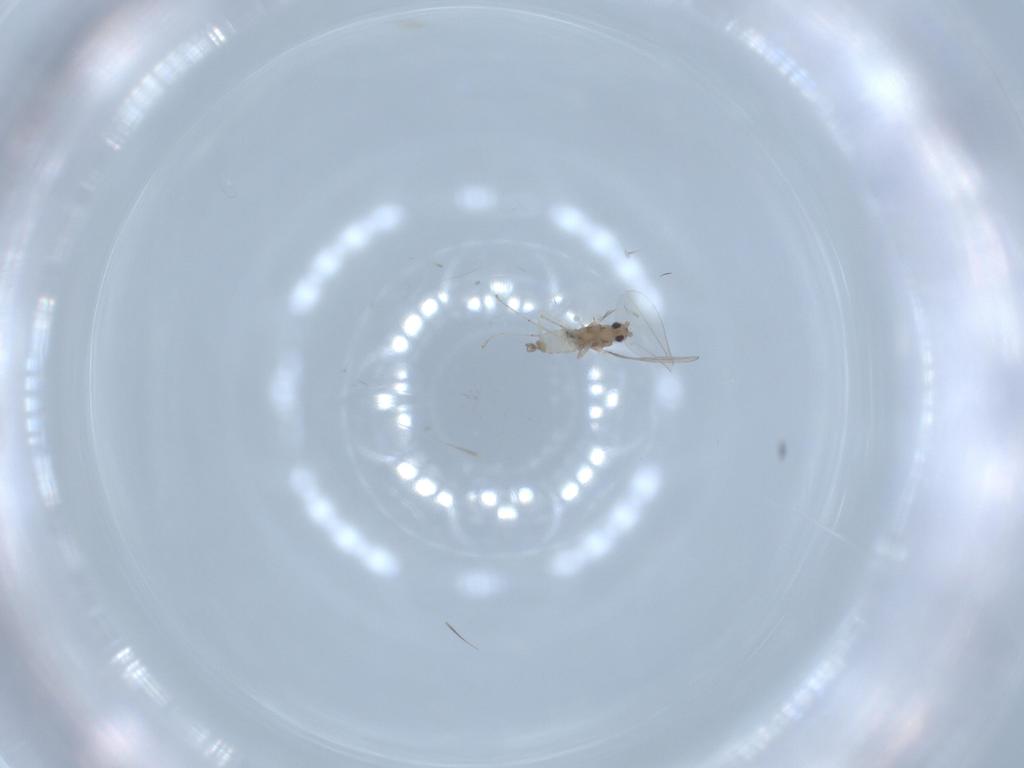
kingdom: Animalia
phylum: Arthropoda
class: Insecta
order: Diptera
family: Cecidomyiidae
